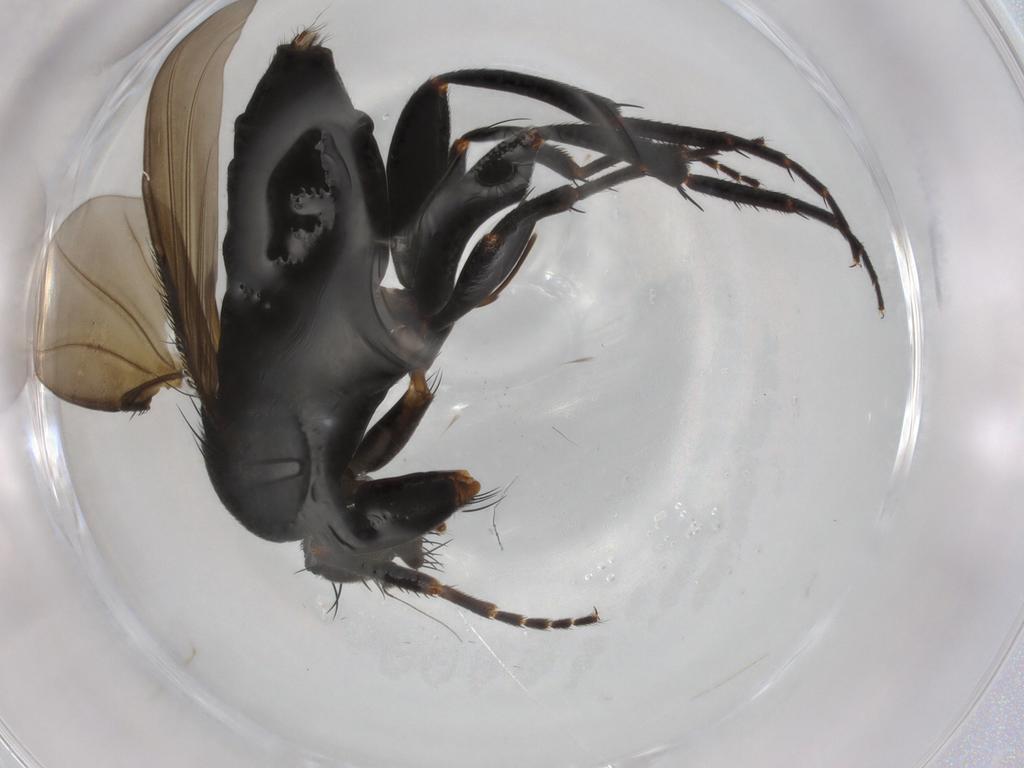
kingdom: Animalia
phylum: Arthropoda
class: Insecta
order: Diptera
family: Phoridae
